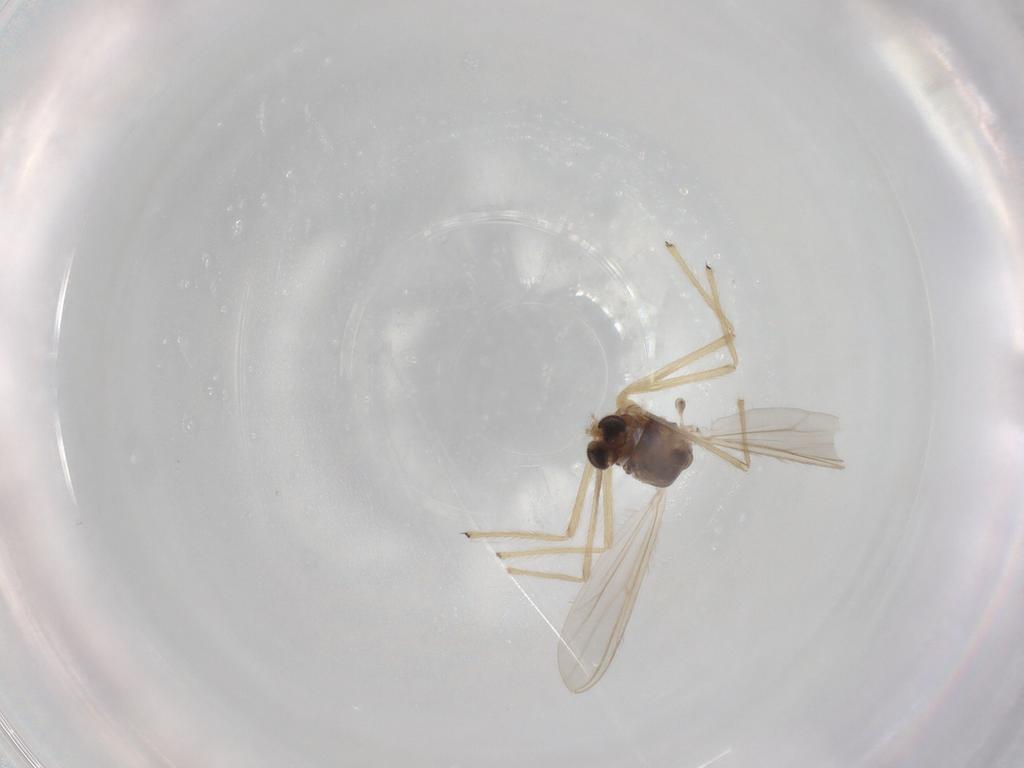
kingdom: Animalia
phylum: Arthropoda
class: Insecta
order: Diptera
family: Chironomidae
